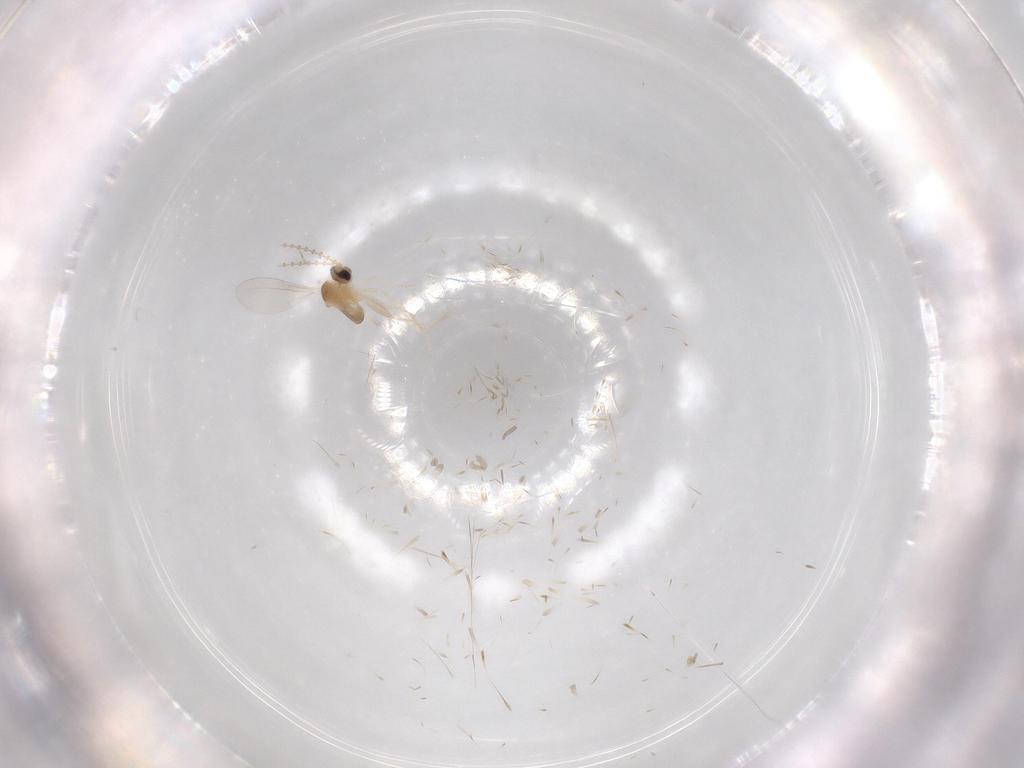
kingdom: Animalia
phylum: Arthropoda
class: Insecta
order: Diptera
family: Cecidomyiidae
